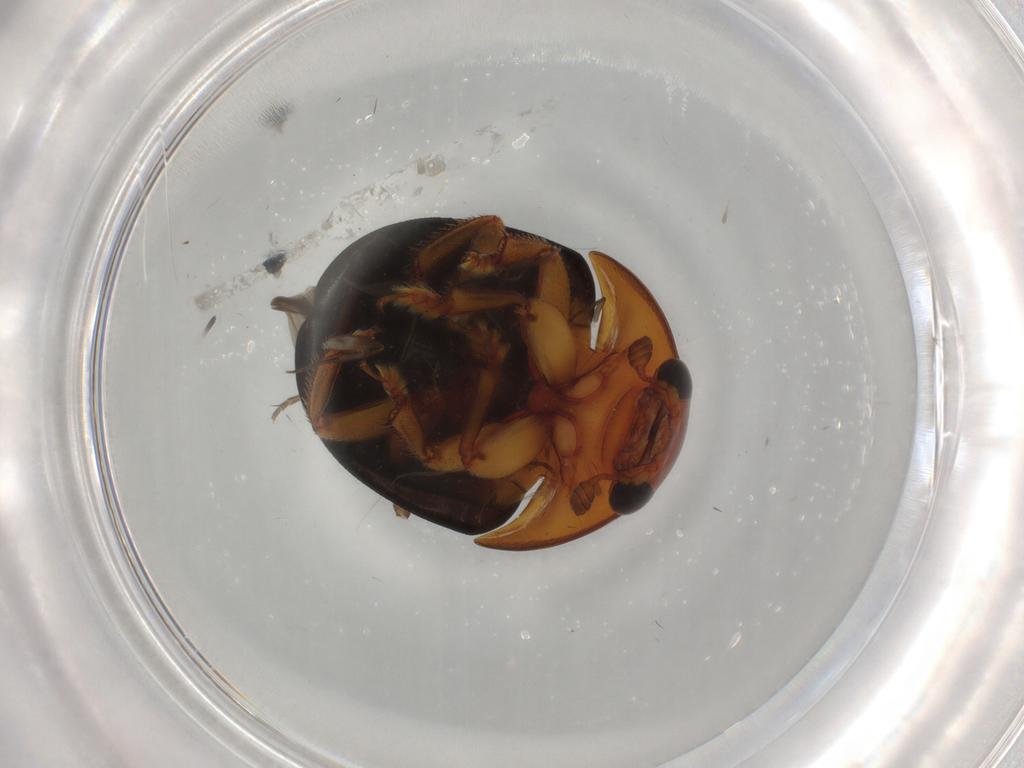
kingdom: Animalia
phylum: Arthropoda
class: Insecta
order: Coleoptera
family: Nitidulidae
